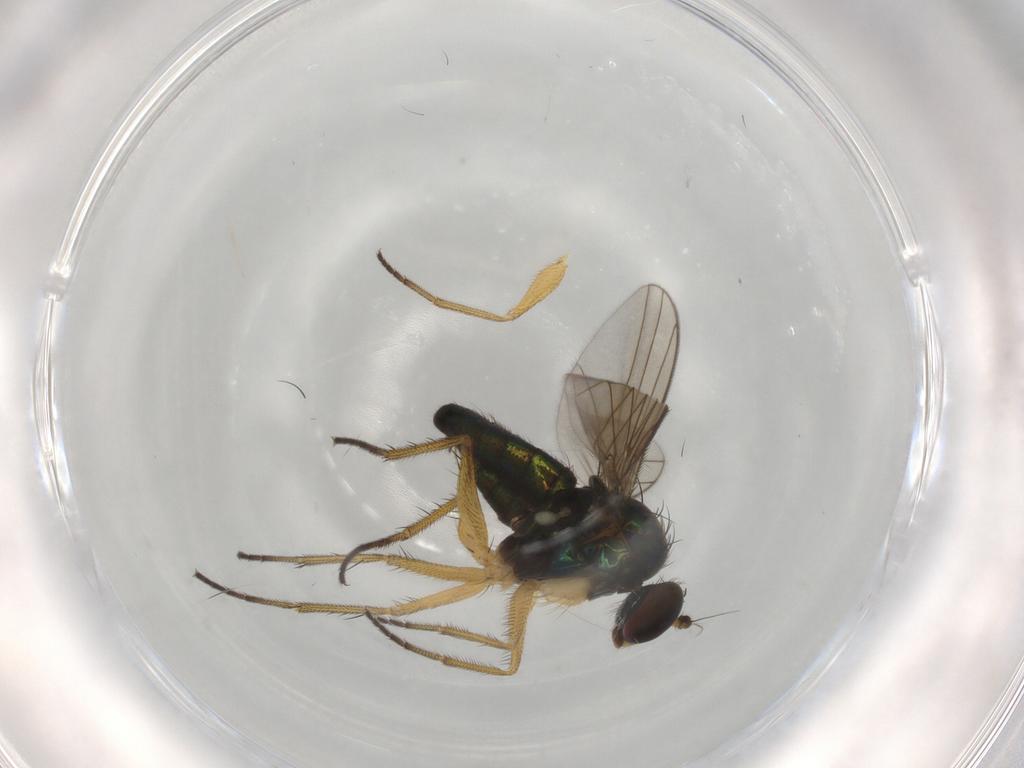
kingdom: Animalia
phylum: Arthropoda
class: Insecta
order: Diptera
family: Dolichopodidae
